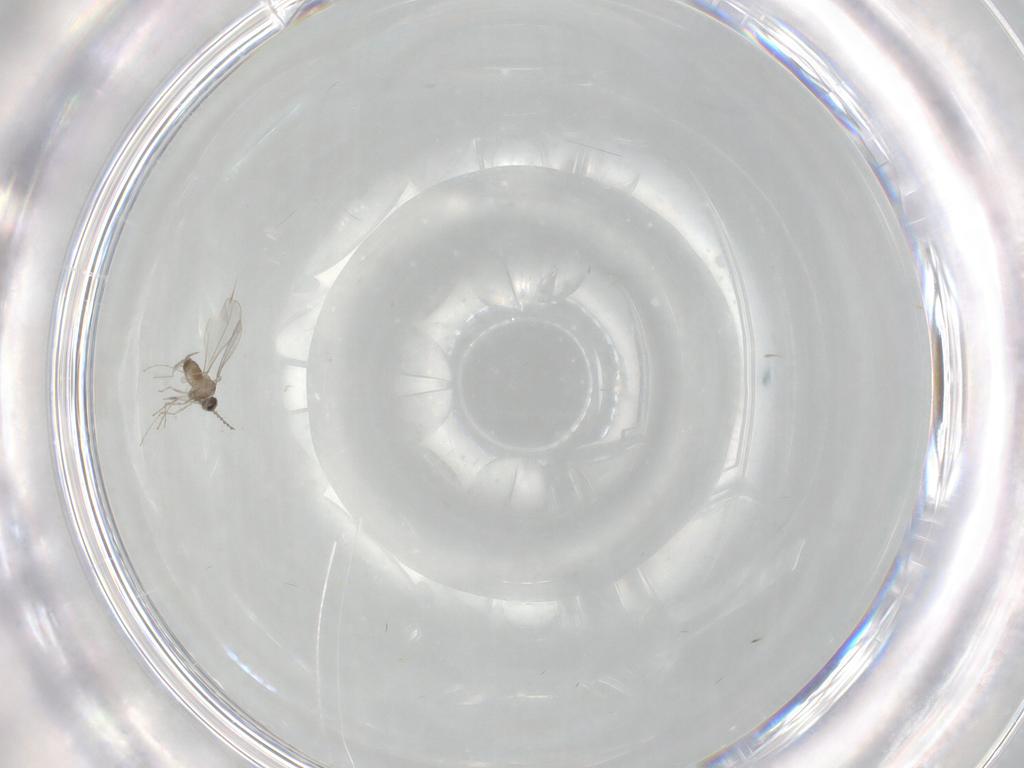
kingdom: Animalia
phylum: Arthropoda
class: Insecta
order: Diptera
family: Cecidomyiidae
